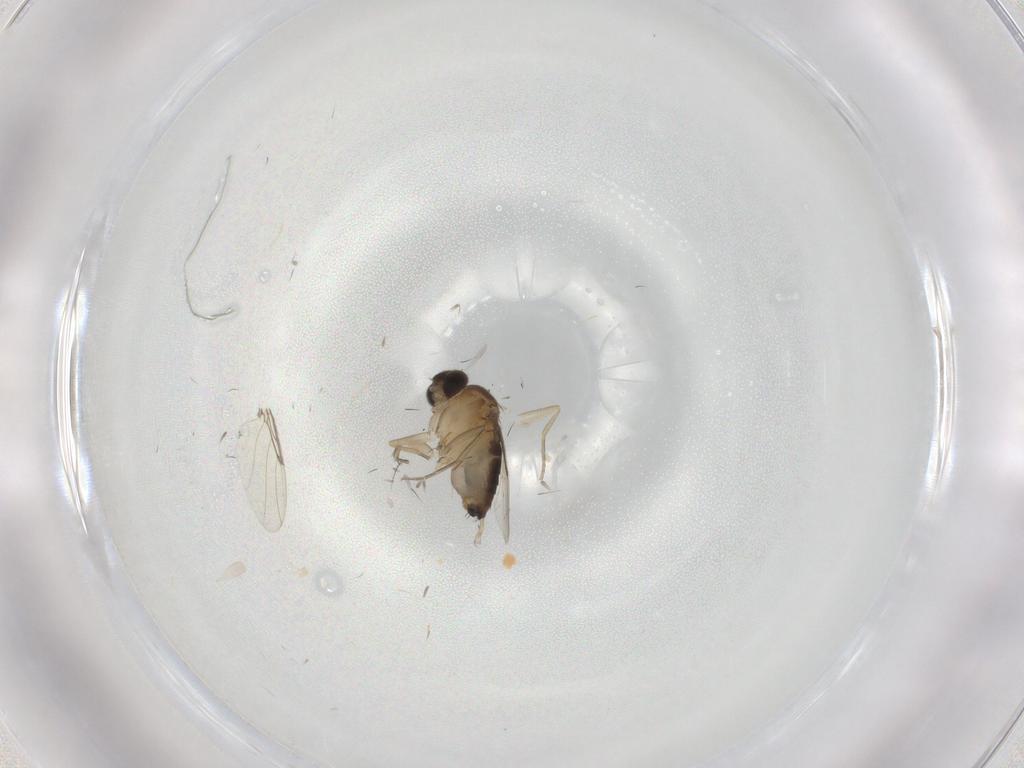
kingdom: Animalia
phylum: Arthropoda
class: Insecta
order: Diptera
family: Phoridae
